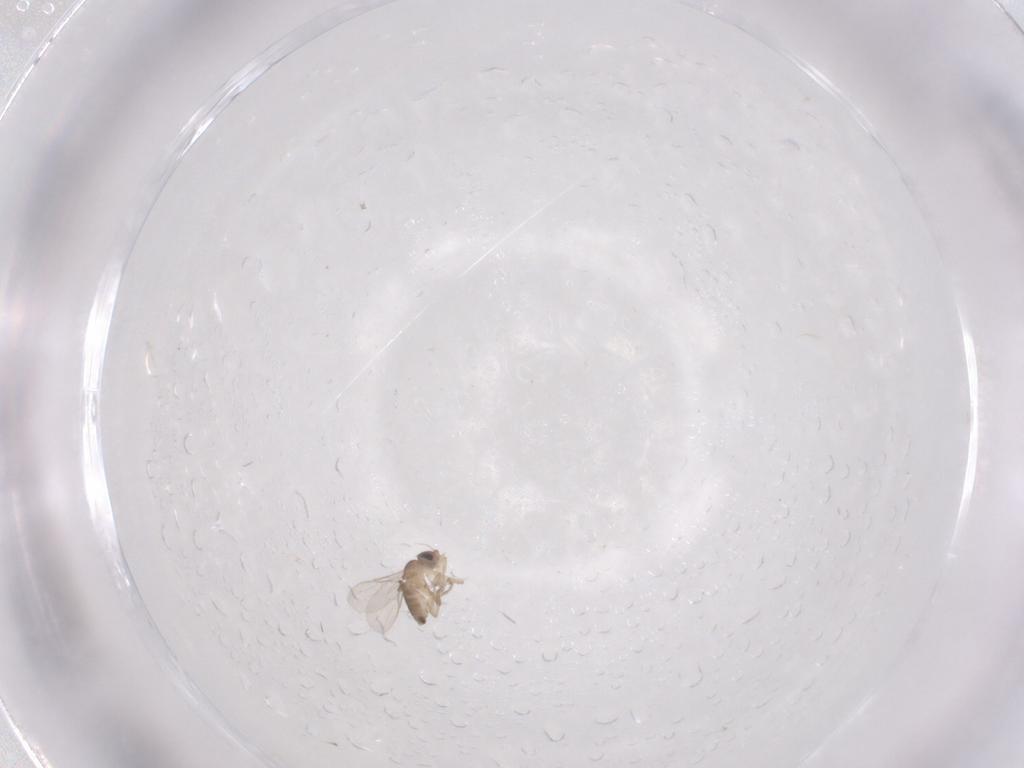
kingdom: Animalia
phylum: Arthropoda
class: Insecta
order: Diptera
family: Phoridae
